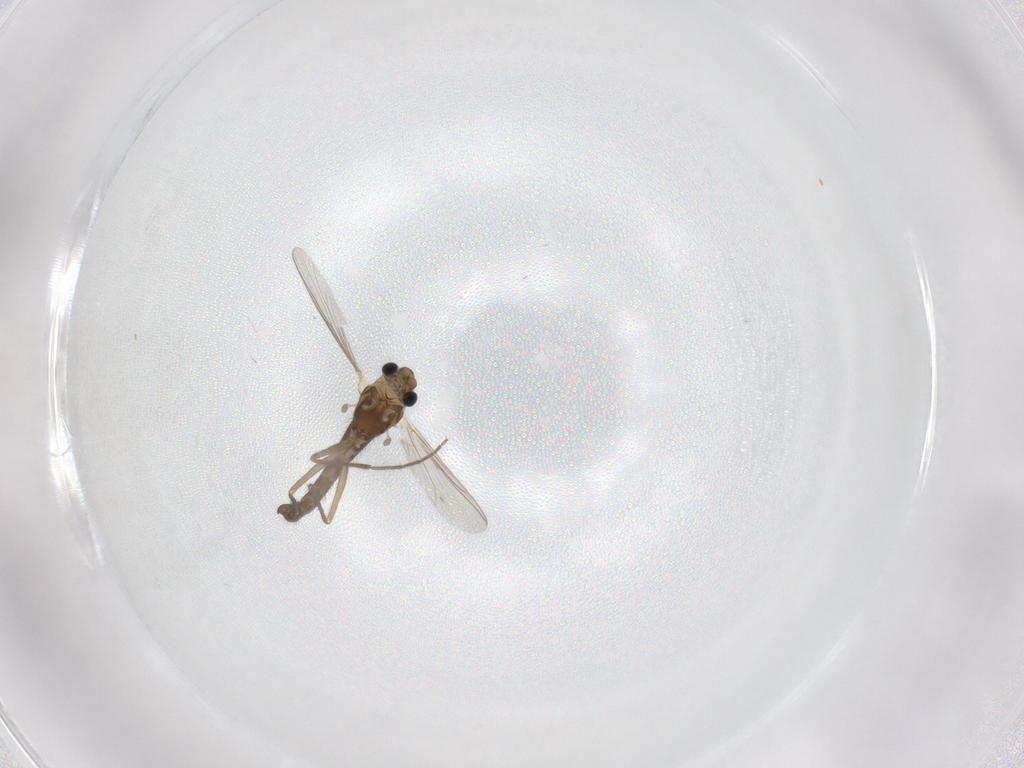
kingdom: Animalia
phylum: Arthropoda
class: Insecta
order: Diptera
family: Chironomidae
